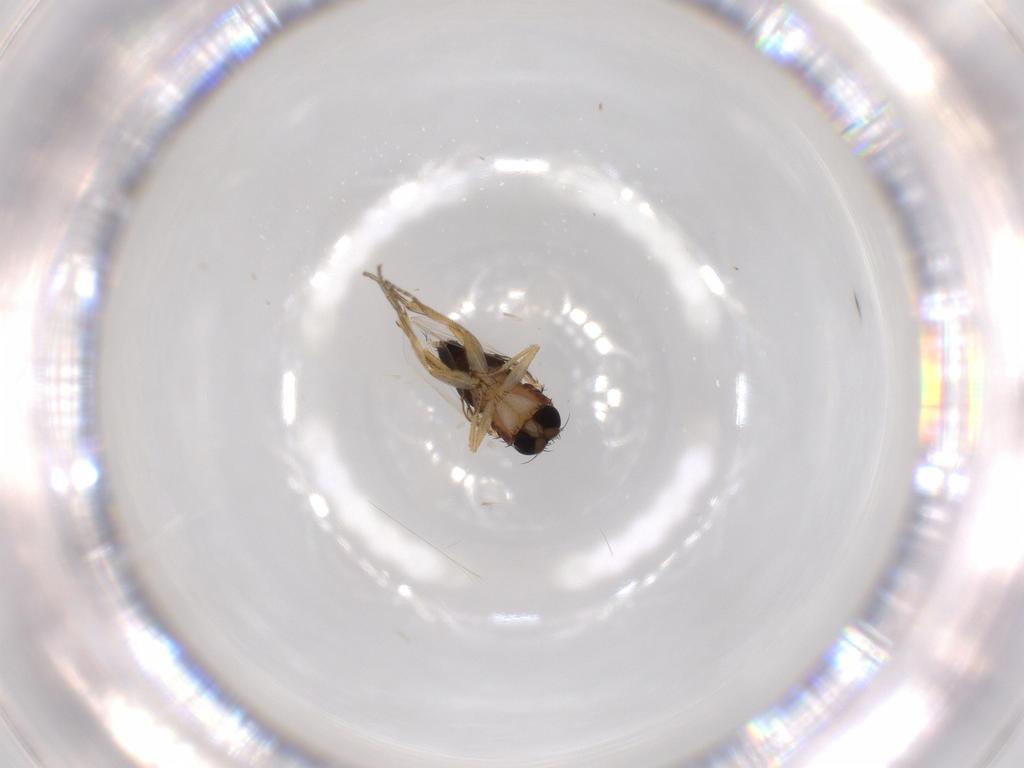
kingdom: Animalia
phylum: Arthropoda
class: Insecta
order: Diptera
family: Phoridae
